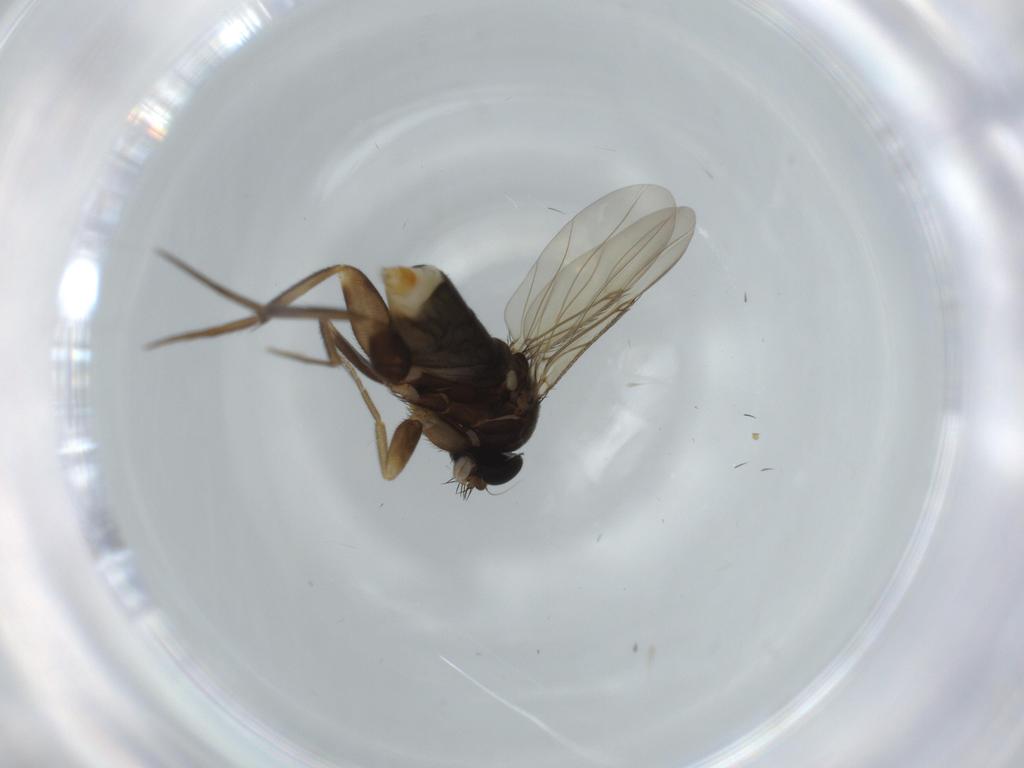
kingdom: Animalia
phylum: Arthropoda
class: Insecta
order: Diptera
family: Phoridae
